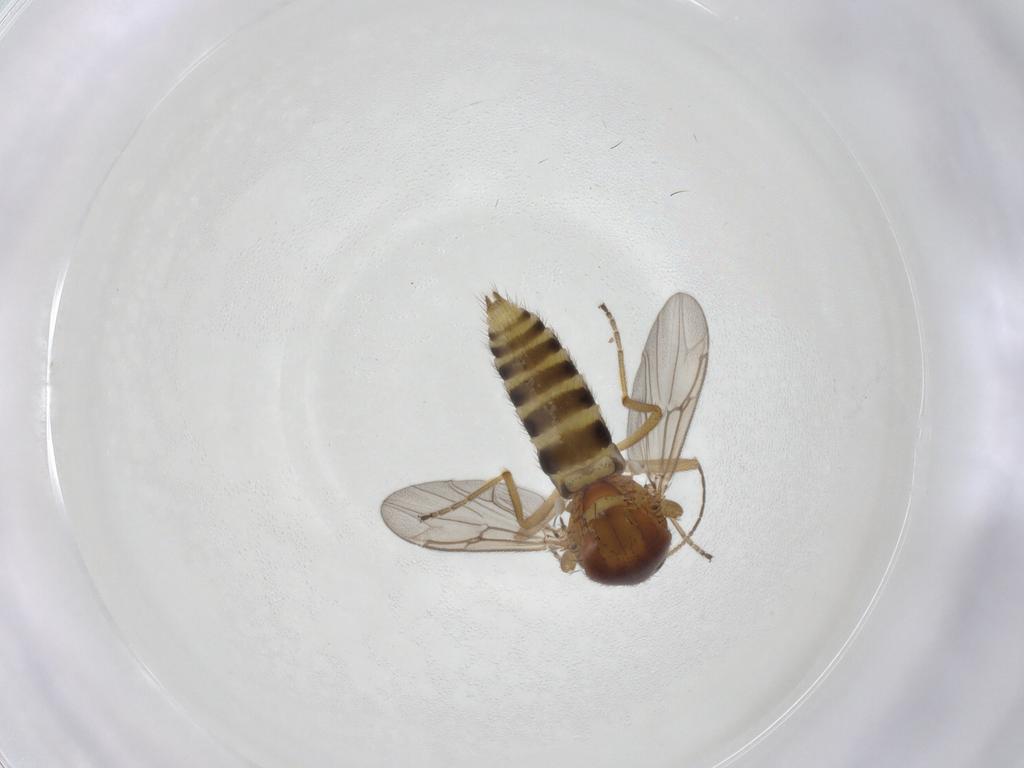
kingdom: Animalia
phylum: Arthropoda
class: Insecta
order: Diptera
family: Ceratopogonidae
